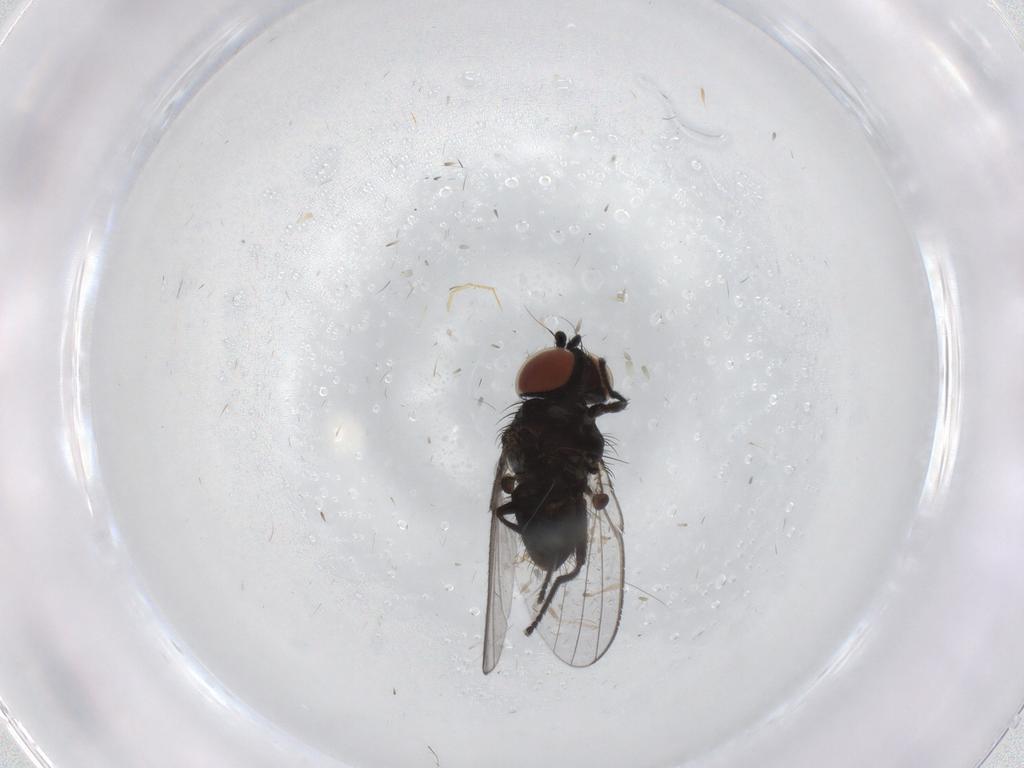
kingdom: Animalia
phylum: Arthropoda
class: Insecta
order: Diptera
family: Milichiidae
